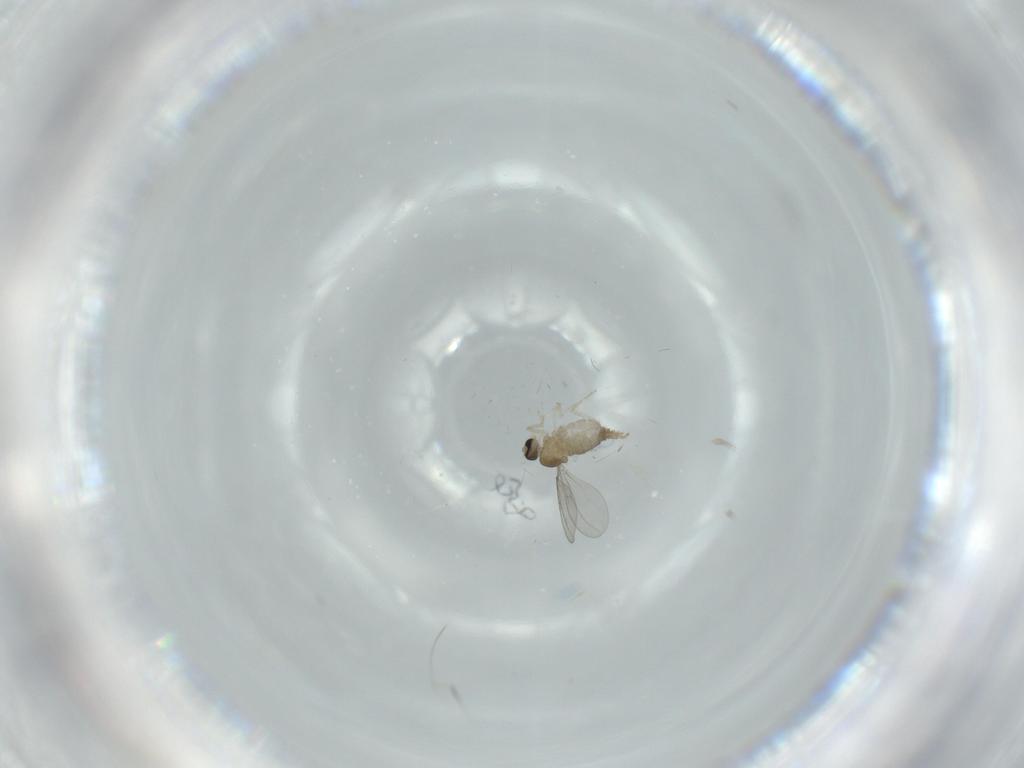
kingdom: Animalia
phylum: Arthropoda
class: Insecta
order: Diptera
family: Cecidomyiidae
